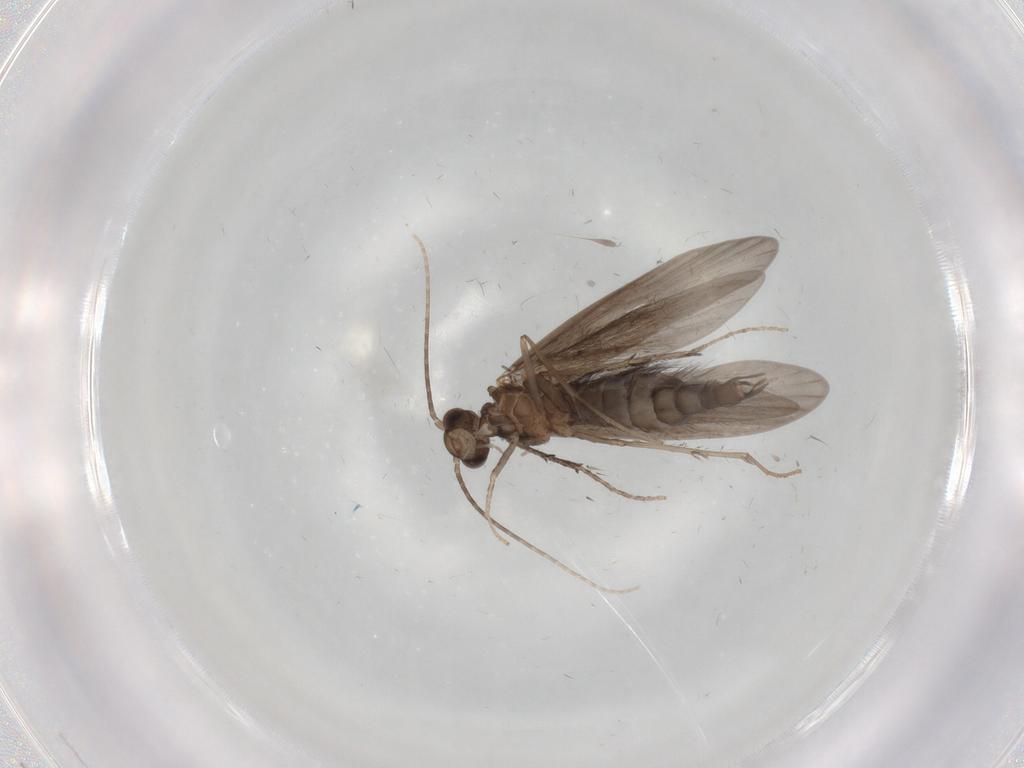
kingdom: Animalia
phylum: Arthropoda
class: Insecta
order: Trichoptera
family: Xiphocentronidae
